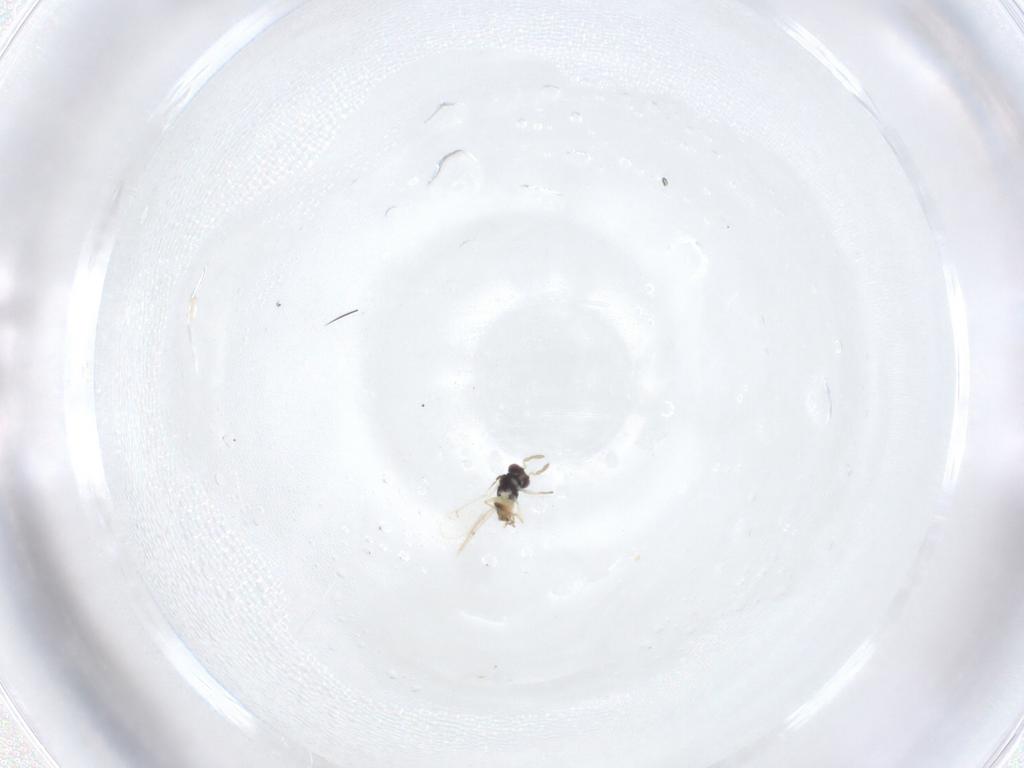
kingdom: Animalia
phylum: Arthropoda
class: Insecta
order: Hymenoptera
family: Eulophidae
